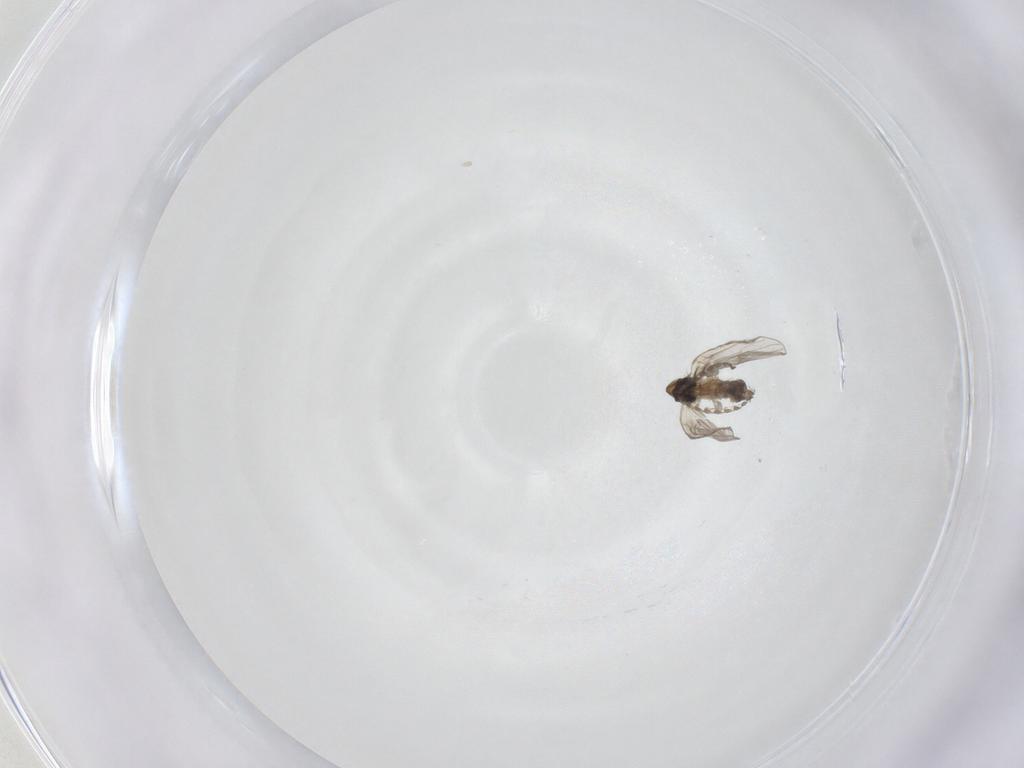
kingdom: Animalia
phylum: Arthropoda
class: Insecta
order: Diptera
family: Psychodidae
